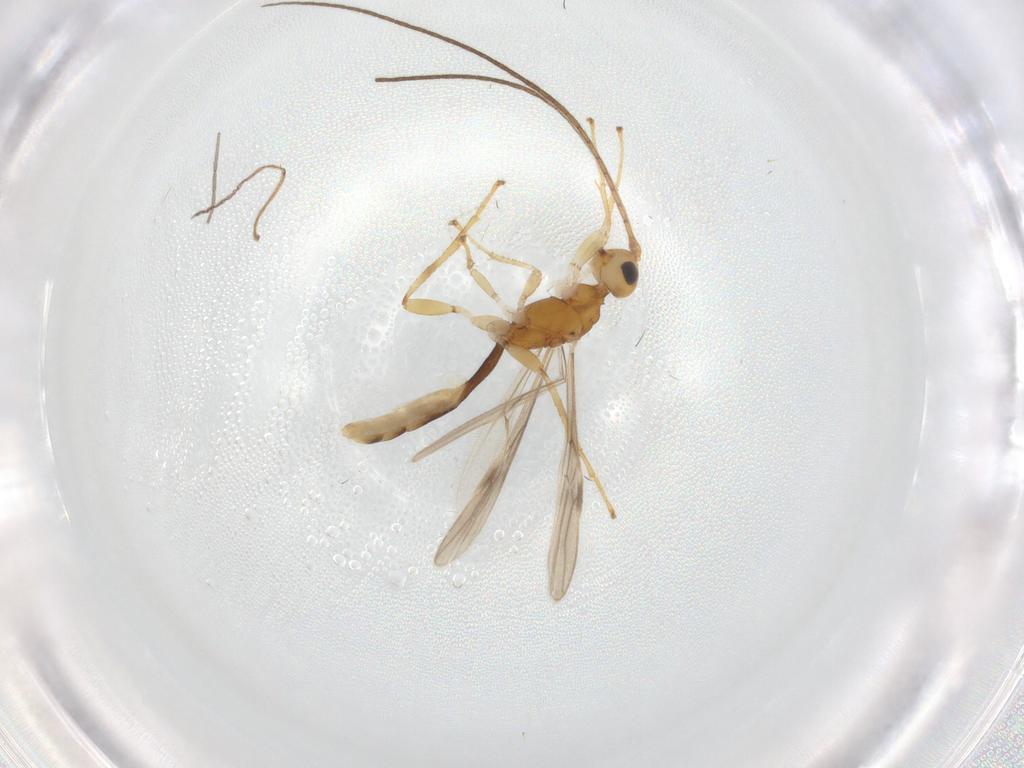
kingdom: Animalia
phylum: Arthropoda
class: Insecta
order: Hymenoptera
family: Braconidae
